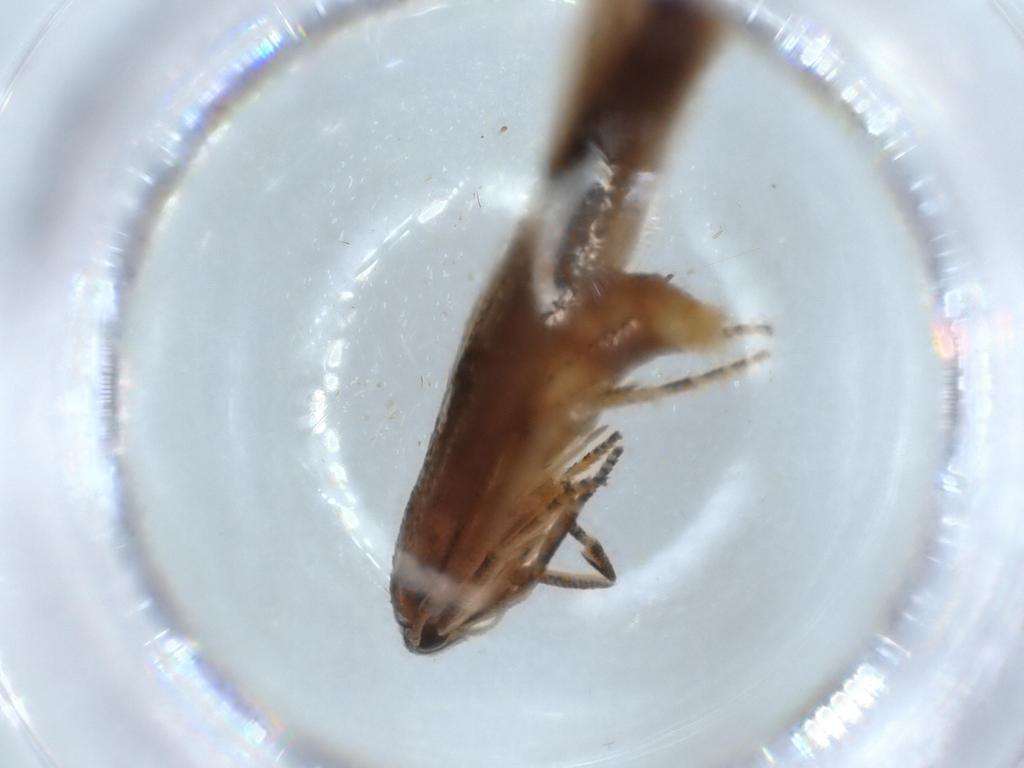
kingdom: Animalia
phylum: Arthropoda
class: Insecta
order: Lepidoptera
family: Stathmopodidae
